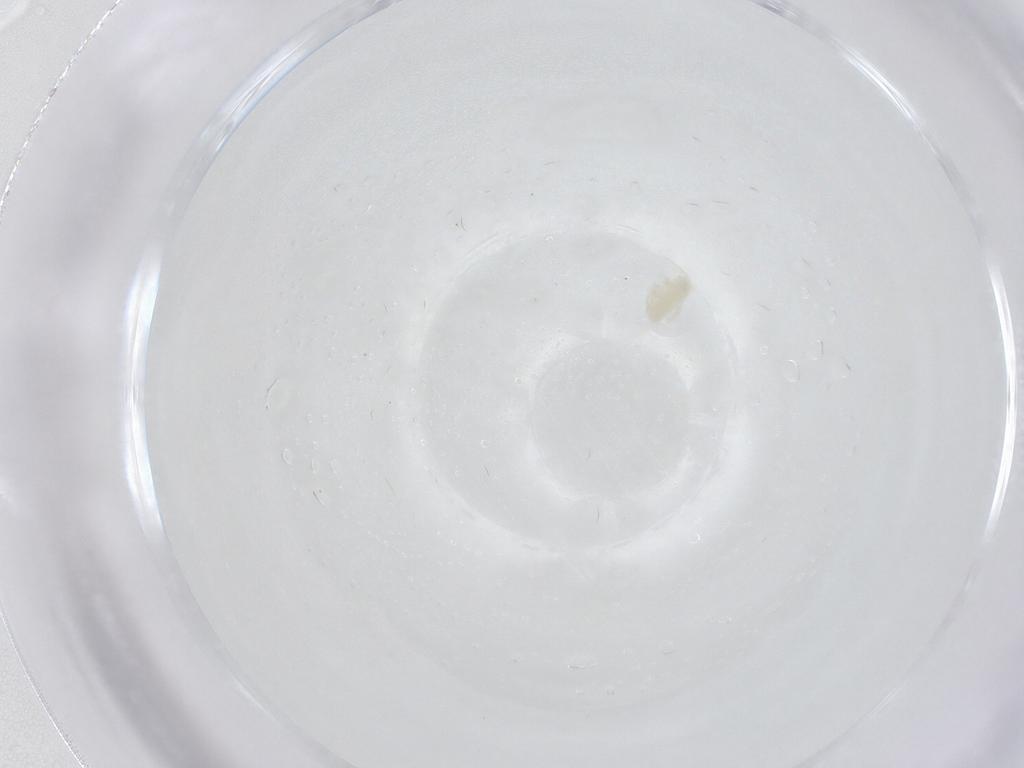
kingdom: Animalia
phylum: Arthropoda
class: Arachnida
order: Trombidiformes
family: Eupodidae
